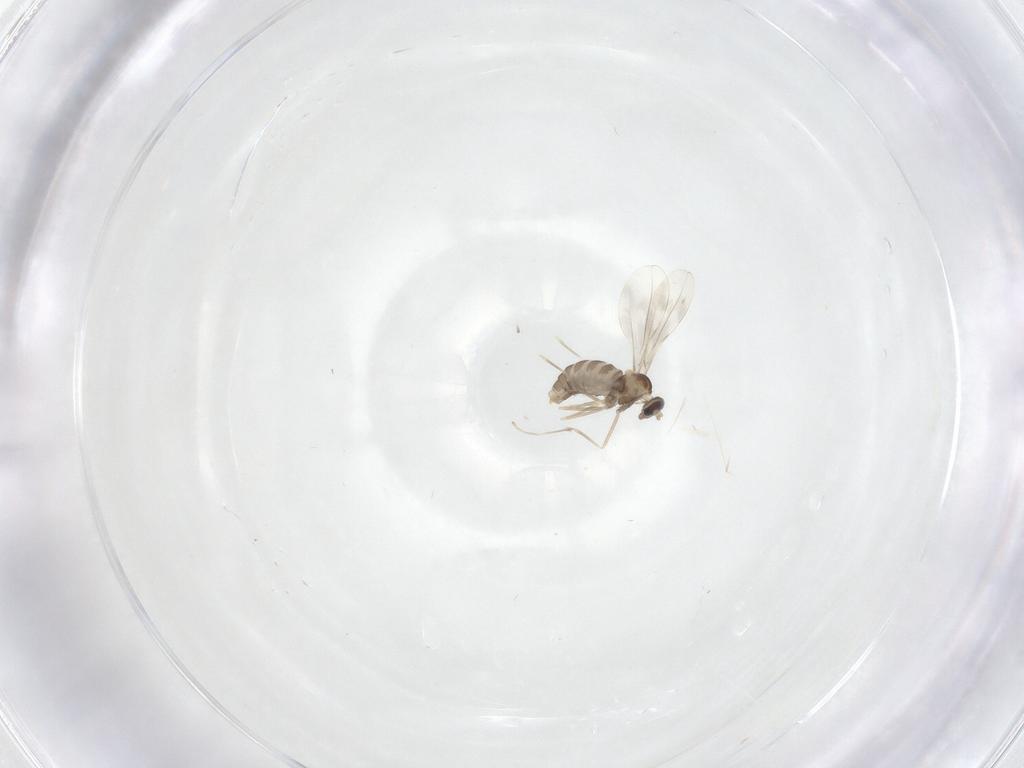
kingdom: Animalia
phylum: Arthropoda
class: Insecta
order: Diptera
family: Cecidomyiidae
